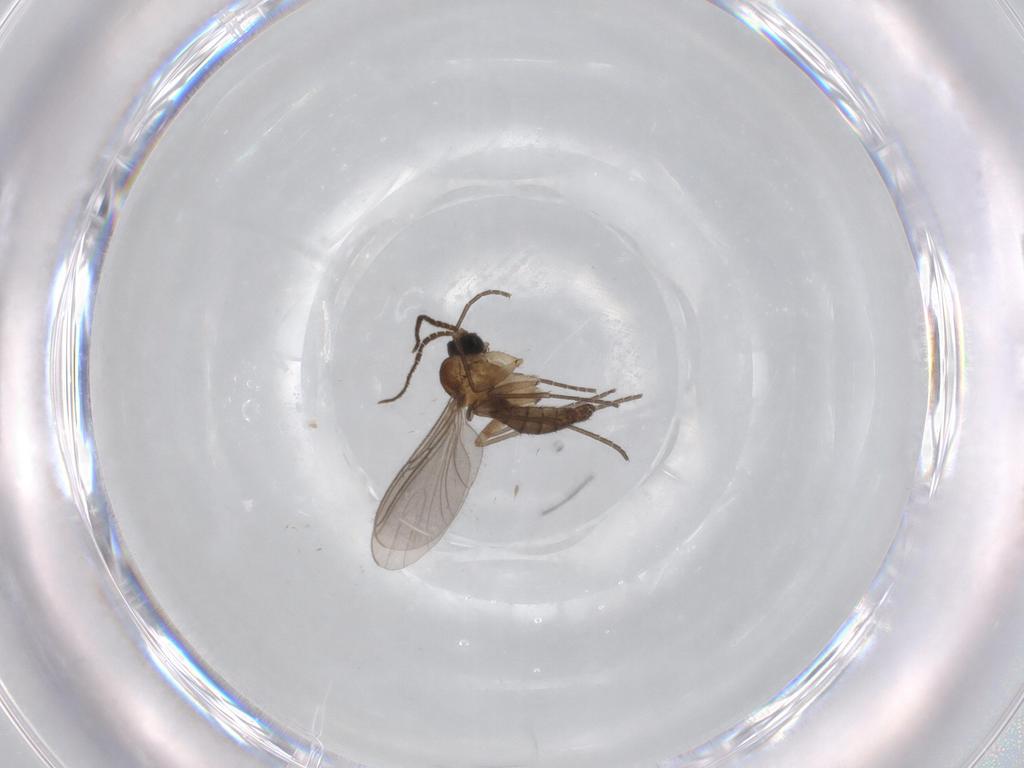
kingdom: Animalia
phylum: Arthropoda
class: Insecta
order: Diptera
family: Sciaridae
